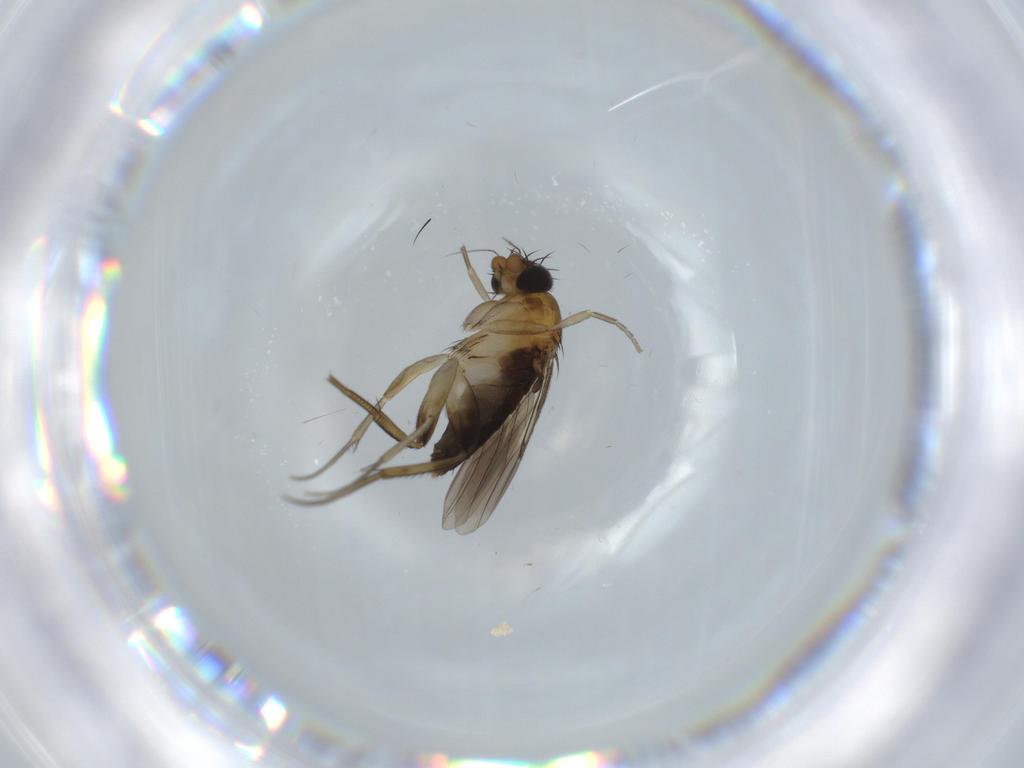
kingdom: Animalia
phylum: Arthropoda
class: Insecta
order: Diptera
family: Phoridae
